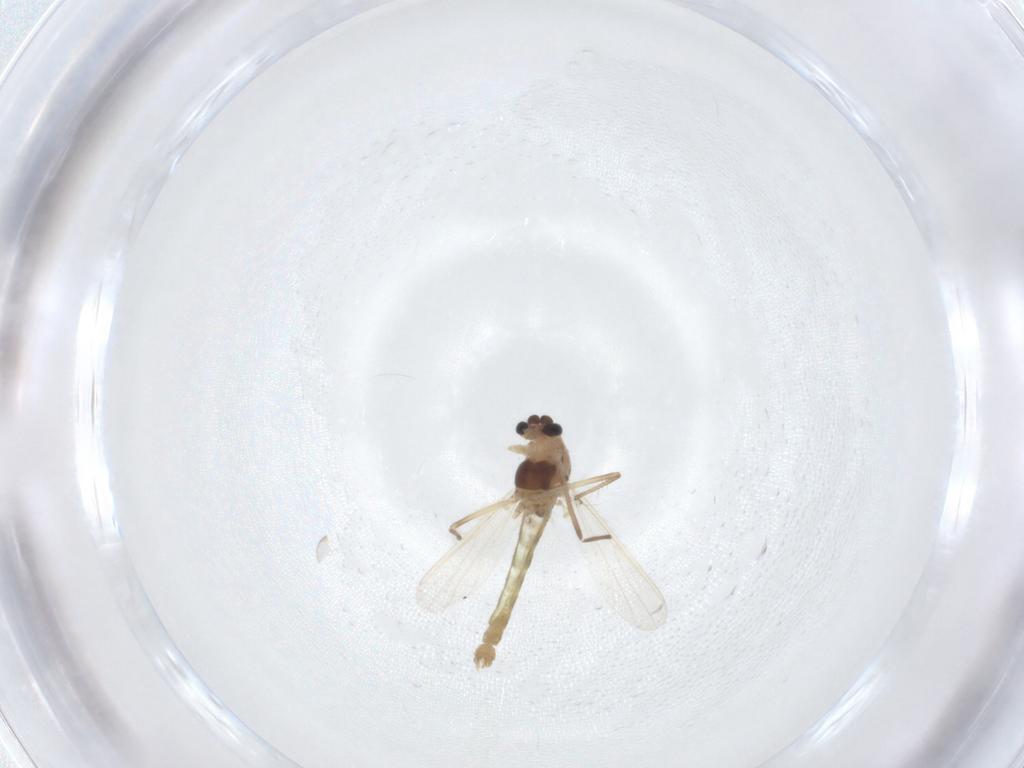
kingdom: Animalia
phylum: Arthropoda
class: Insecta
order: Diptera
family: Chironomidae
